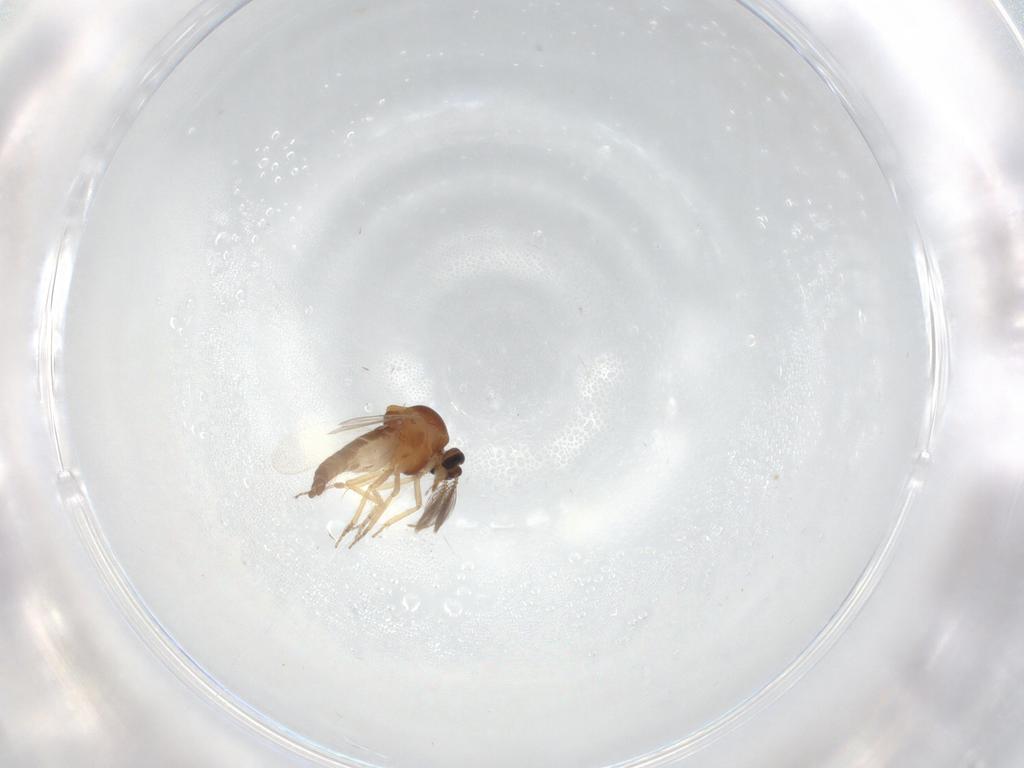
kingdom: Animalia
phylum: Arthropoda
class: Insecta
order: Diptera
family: Ceratopogonidae
